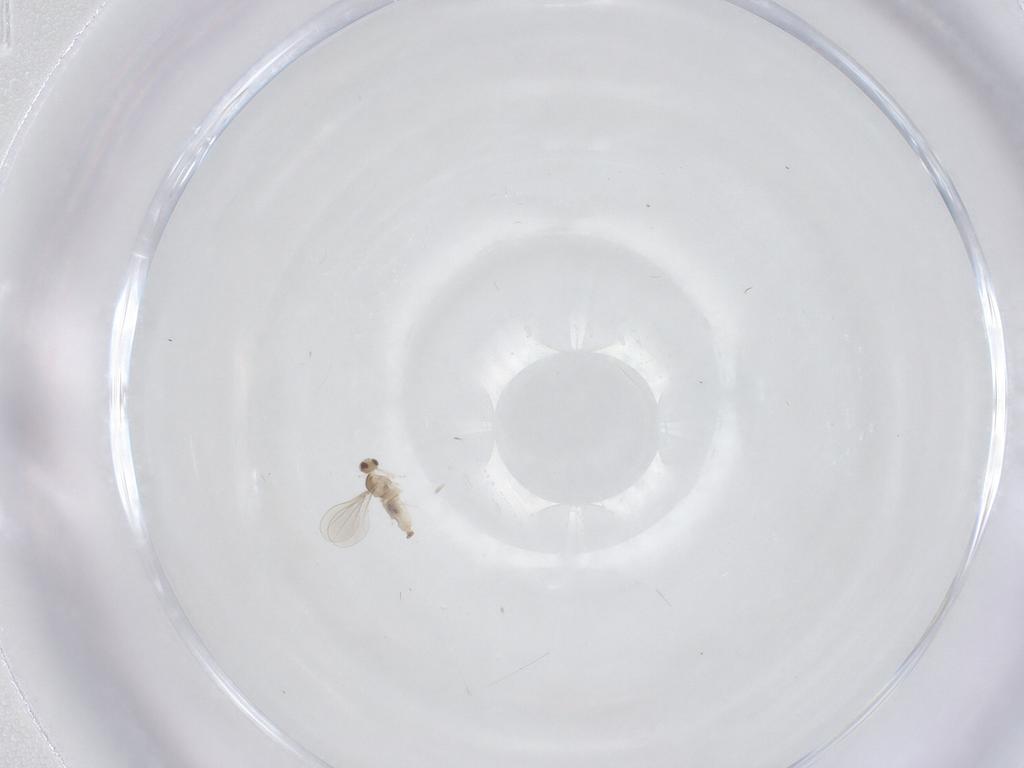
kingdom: Animalia
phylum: Arthropoda
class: Insecta
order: Diptera
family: Cecidomyiidae
